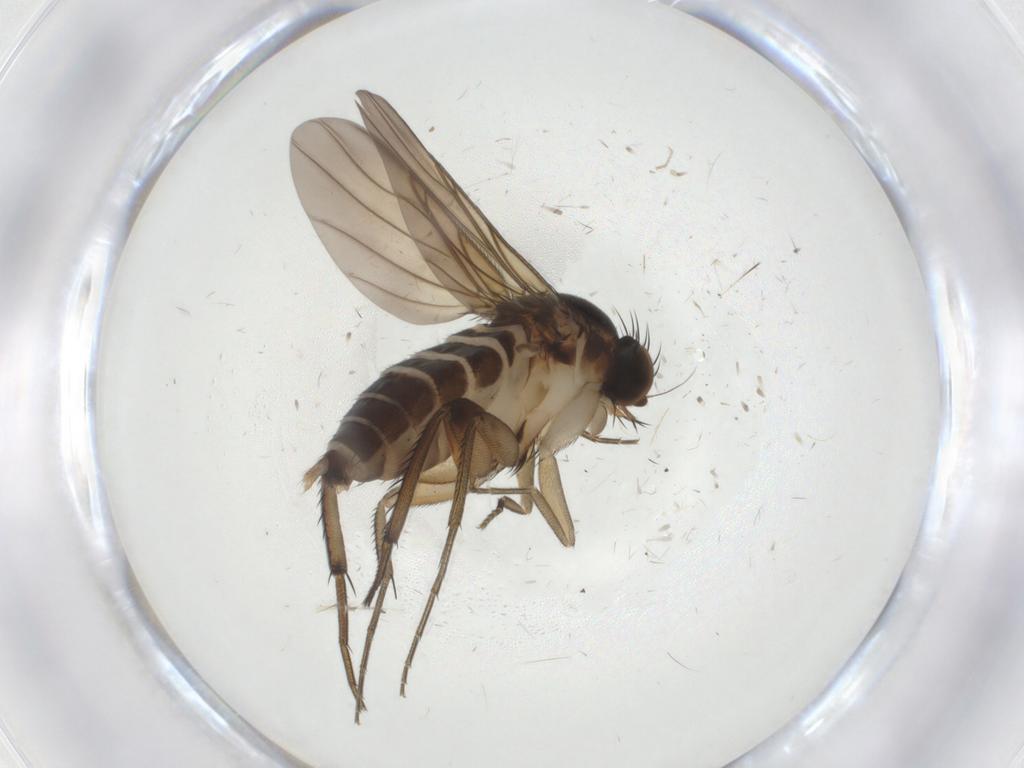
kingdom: Animalia
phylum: Arthropoda
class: Insecta
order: Diptera
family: Phoridae
